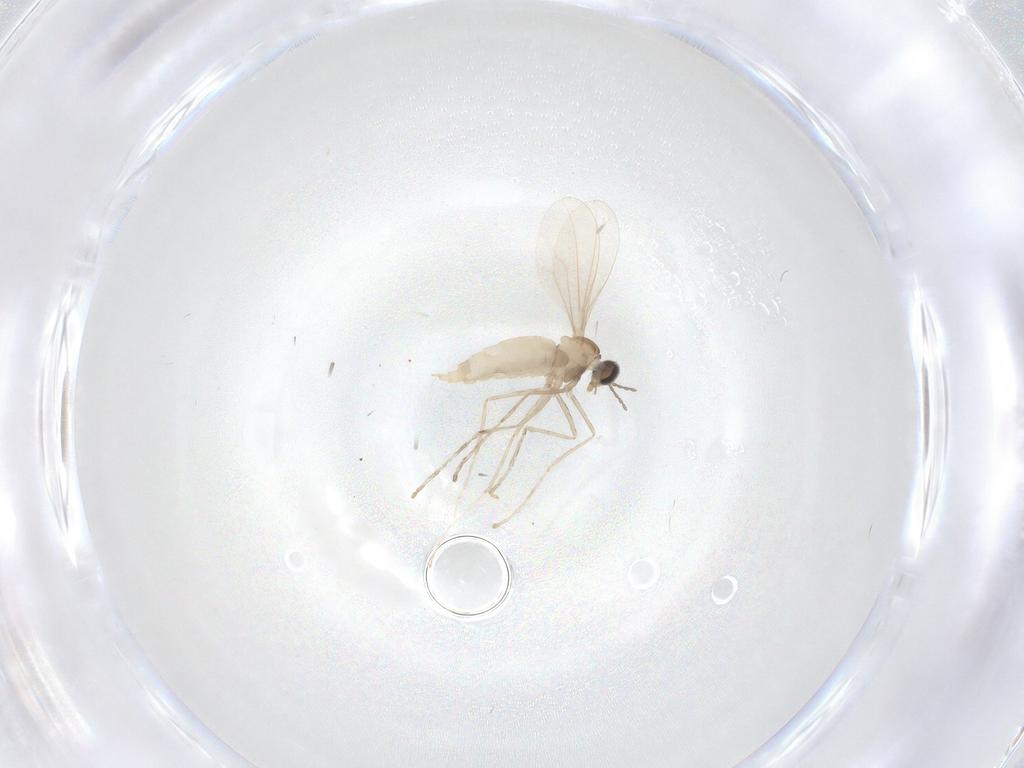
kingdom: Animalia
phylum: Arthropoda
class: Insecta
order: Diptera
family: Cecidomyiidae
